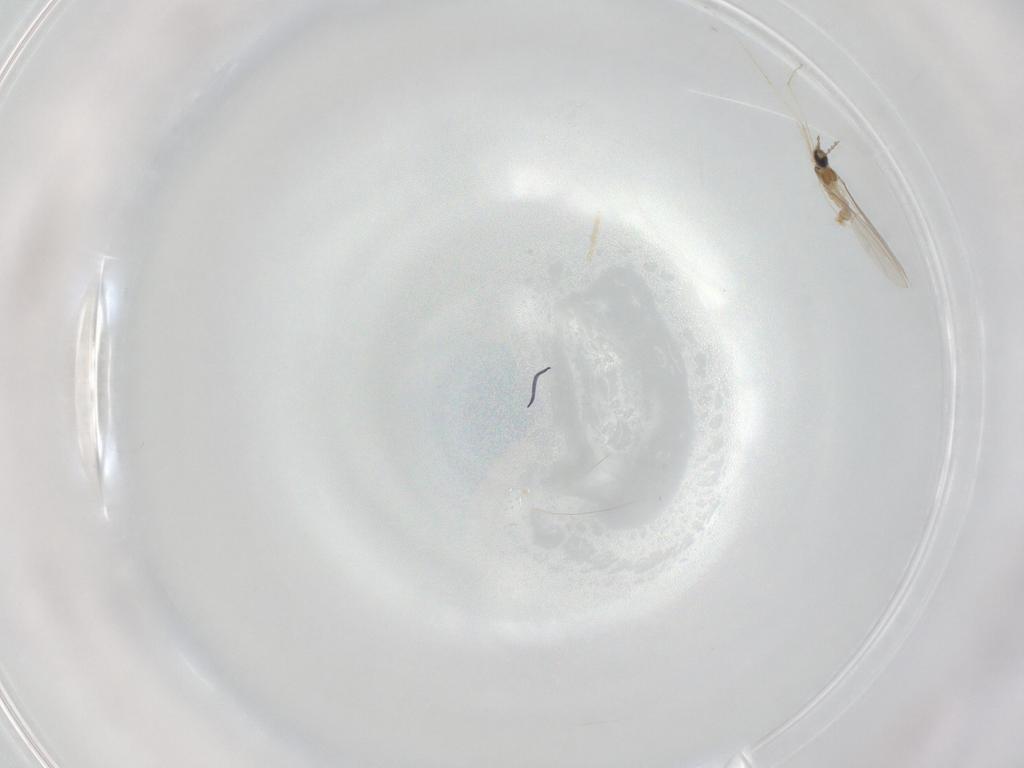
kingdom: Animalia
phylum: Arthropoda
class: Insecta
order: Diptera
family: Cecidomyiidae
